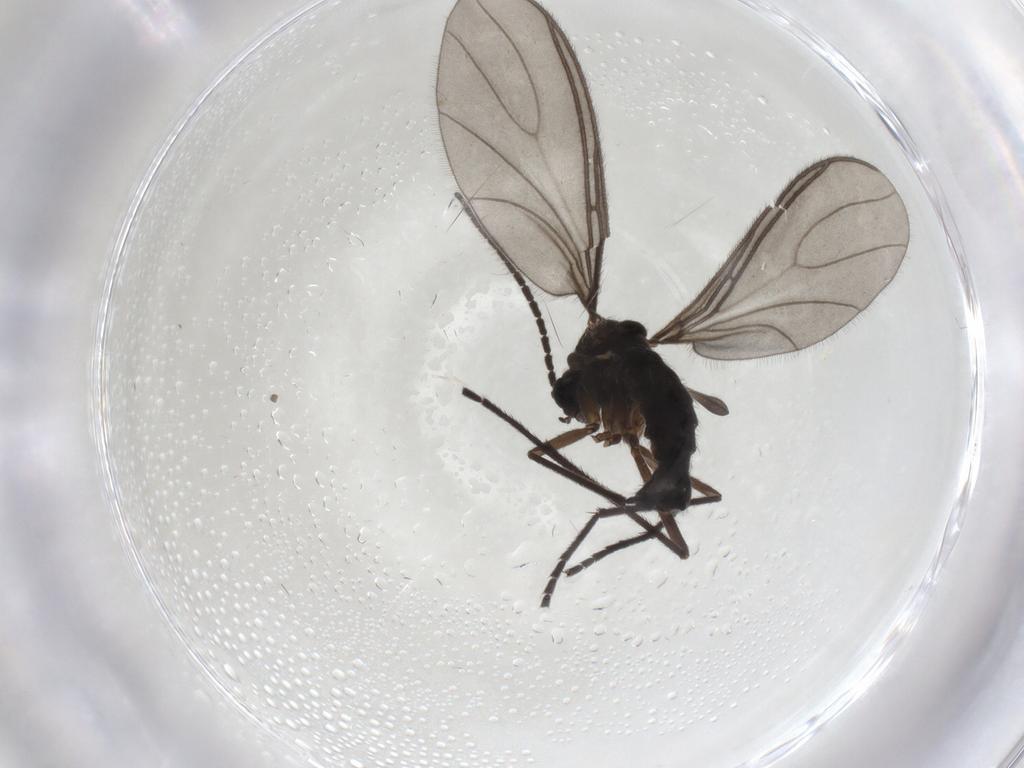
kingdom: Animalia
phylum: Arthropoda
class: Insecta
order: Diptera
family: Sciaridae
